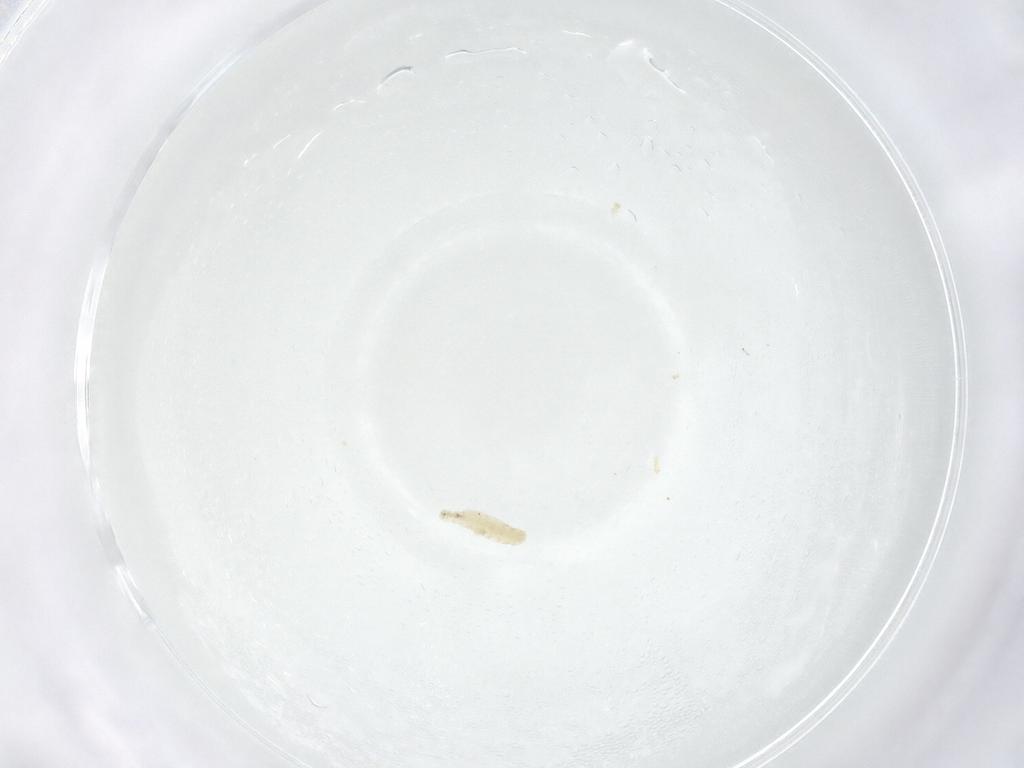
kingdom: Animalia
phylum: Arthropoda
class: Insecta
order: Diptera
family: Sarcophagidae
